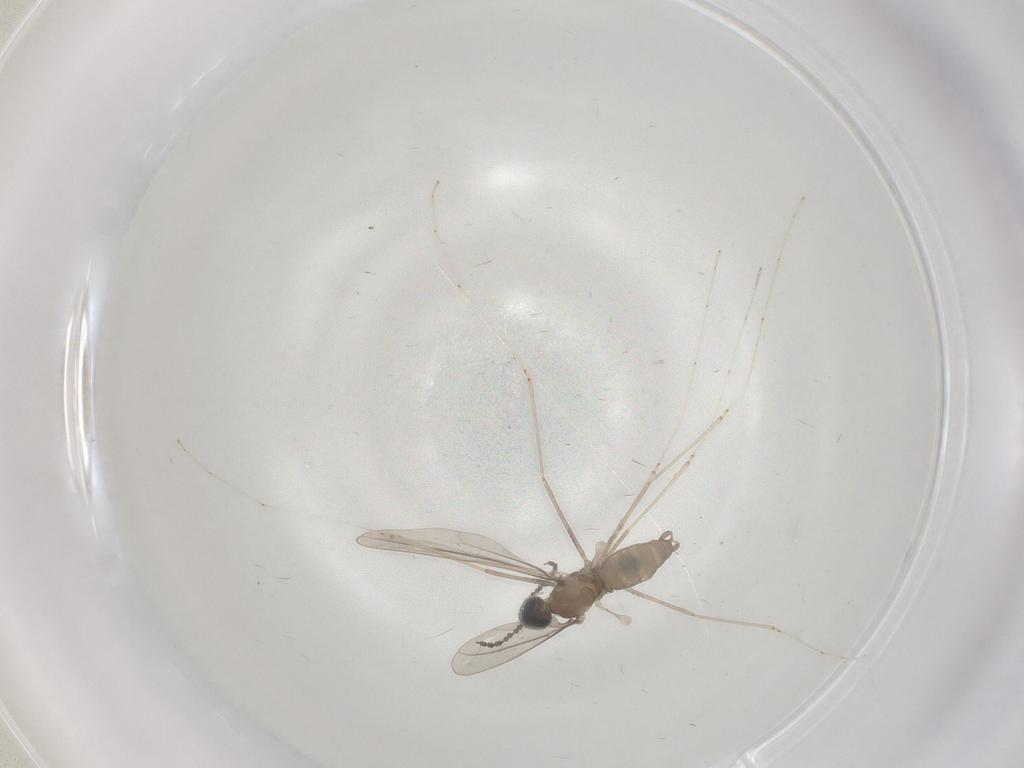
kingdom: Animalia
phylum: Arthropoda
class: Insecta
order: Diptera
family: Cecidomyiidae
